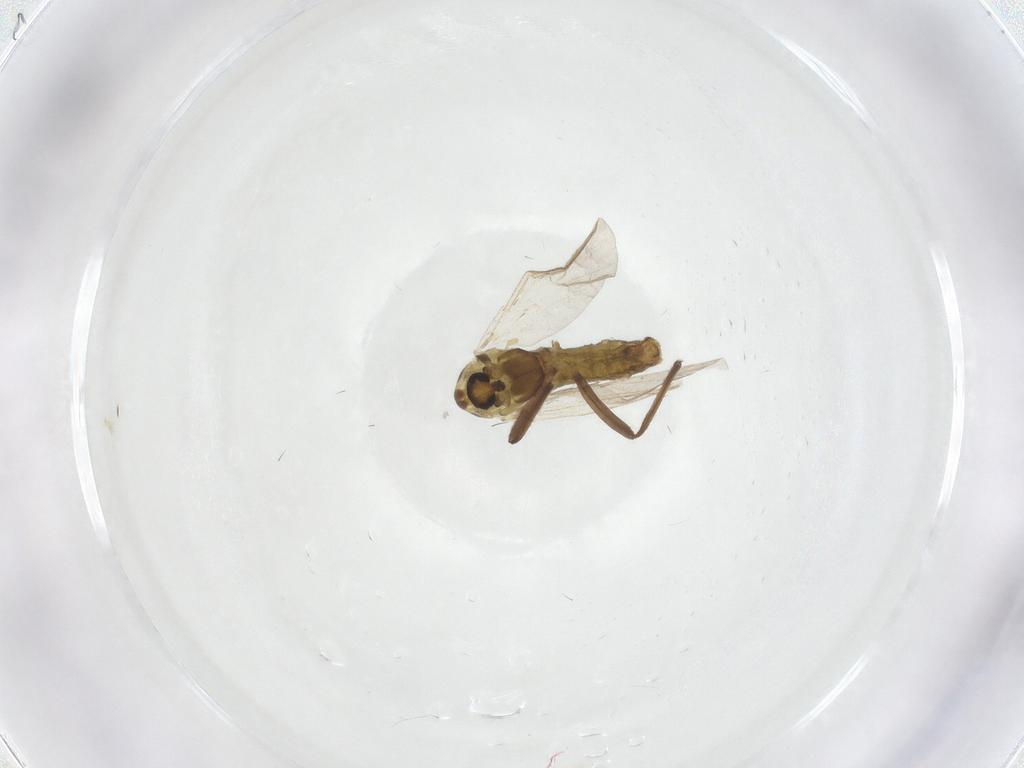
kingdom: Animalia
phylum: Arthropoda
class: Insecta
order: Diptera
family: Chironomidae
